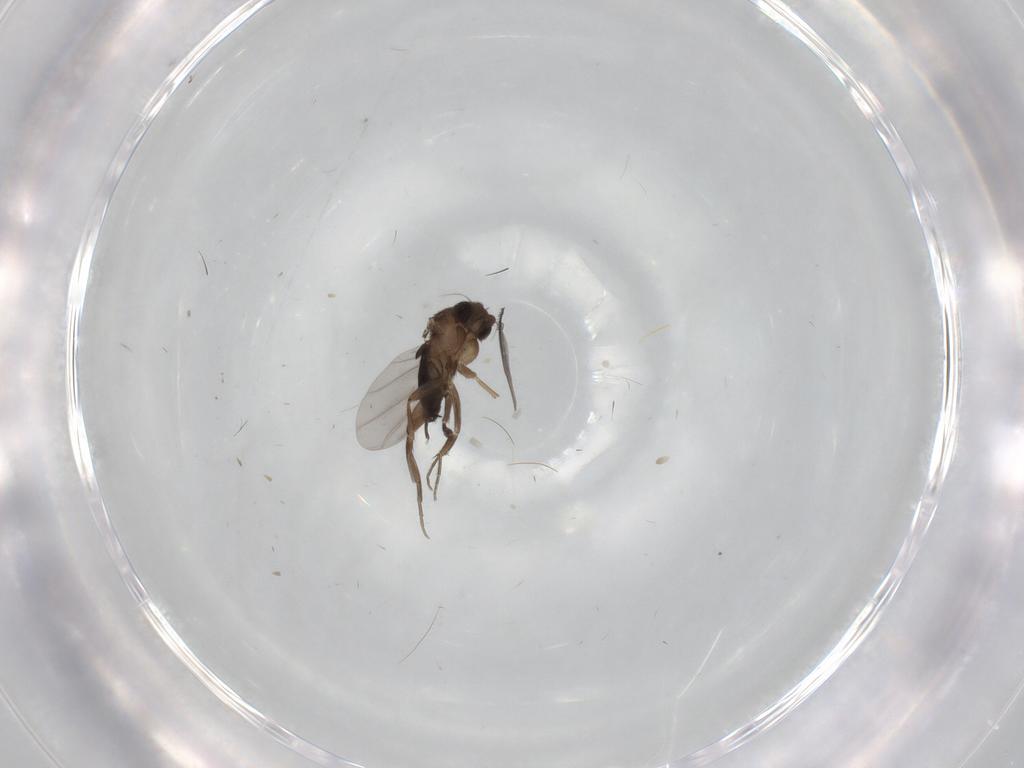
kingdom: Animalia
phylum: Arthropoda
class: Insecta
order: Diptera
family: Phoridae
